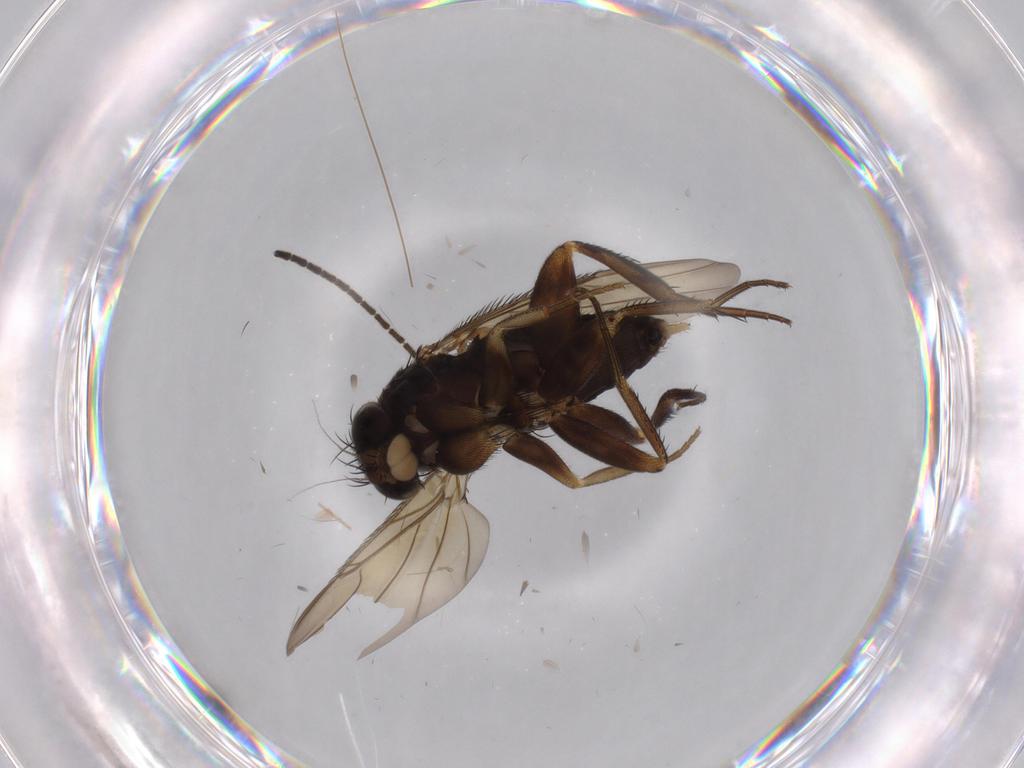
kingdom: Animalia
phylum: Arthropoda
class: Insecta
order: Diptera
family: Phoridae
